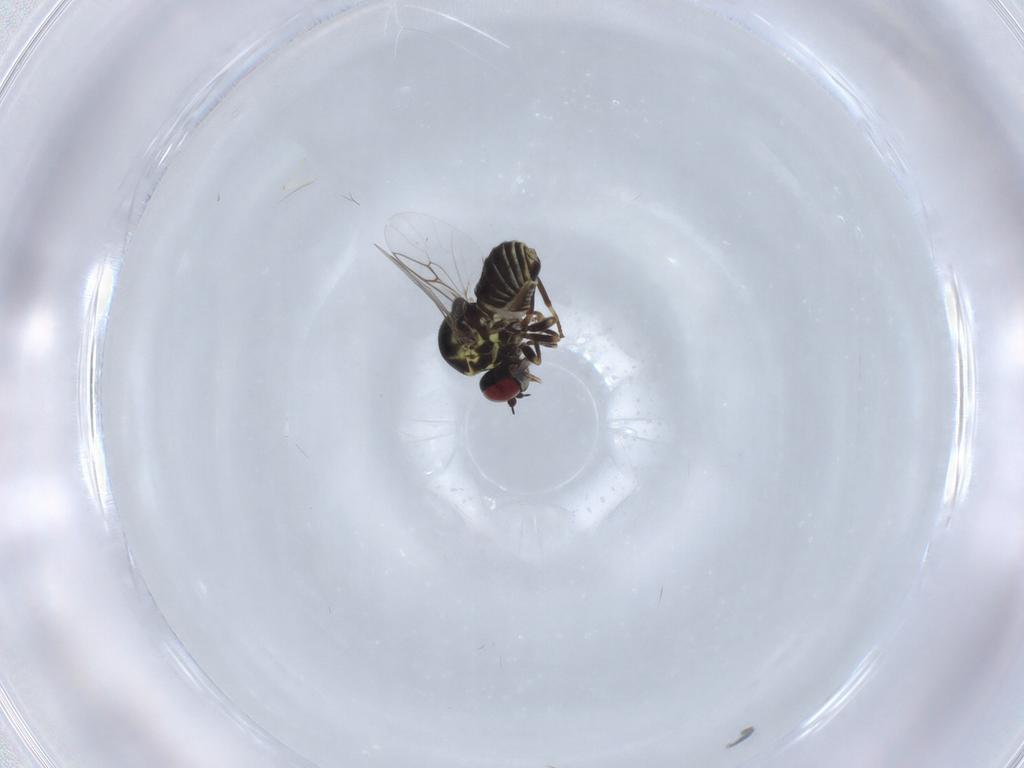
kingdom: Animalia
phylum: Arthropoda
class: Insecta
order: Diptera
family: Mythicomyiidae
